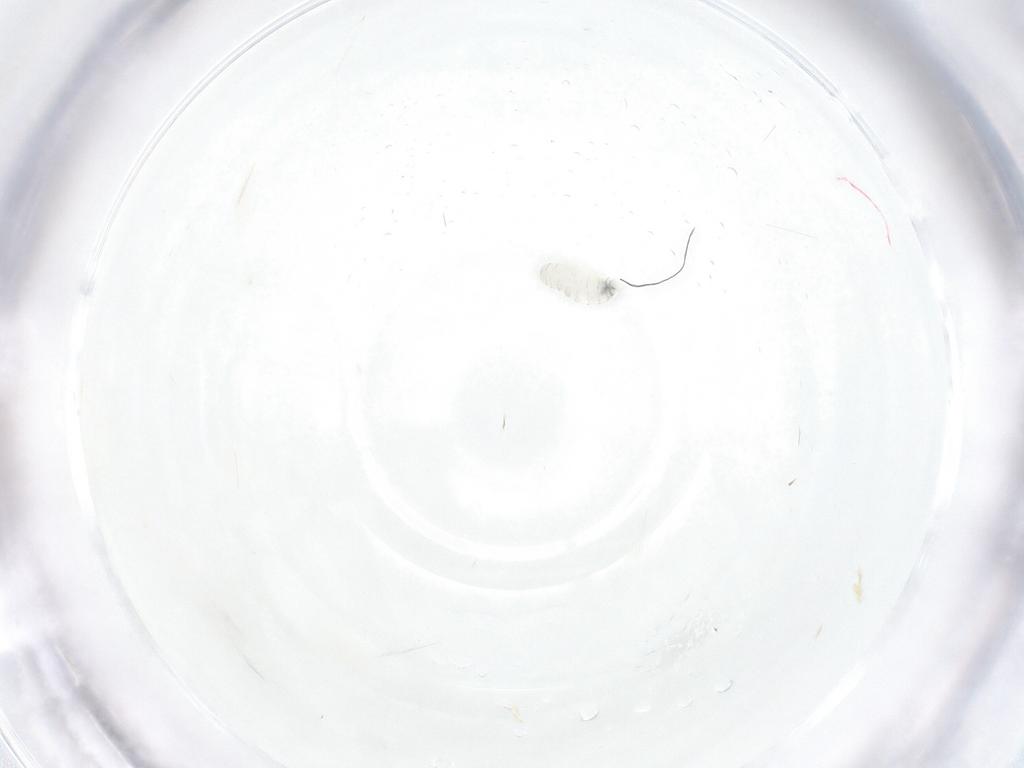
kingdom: Animalia
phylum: Arthropoda
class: Insecta
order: Diptera
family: Tachinidae
